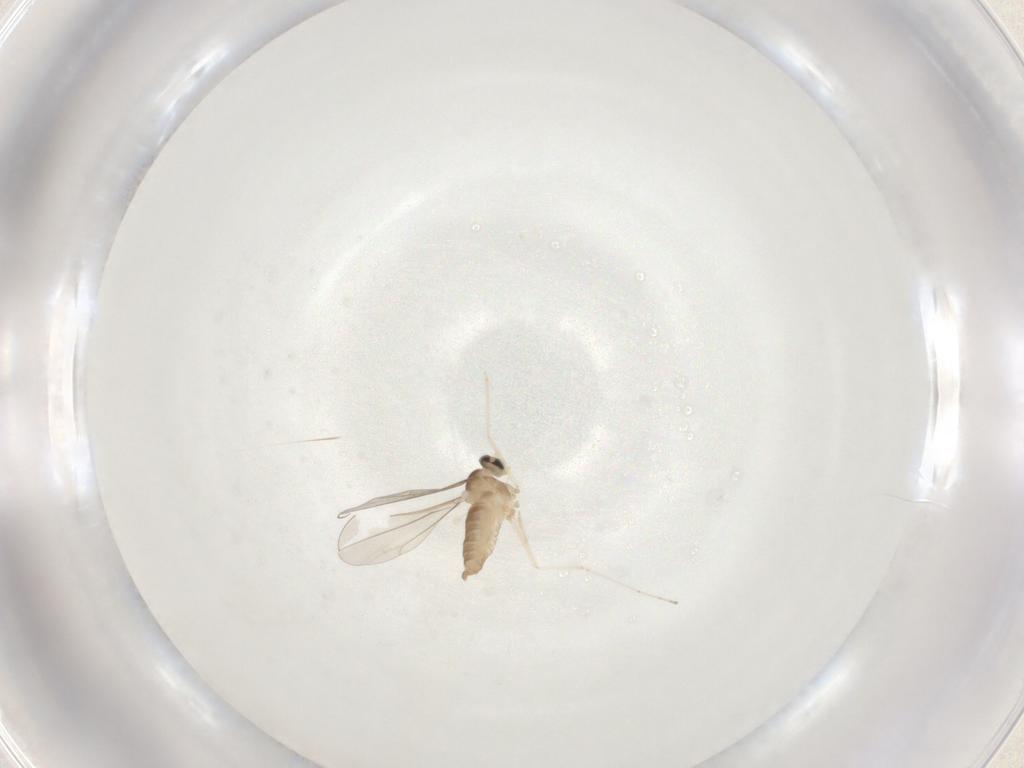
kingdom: Animalia
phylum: Arthropoda
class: Insecta
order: Diptera
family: Cecidomyiidae
